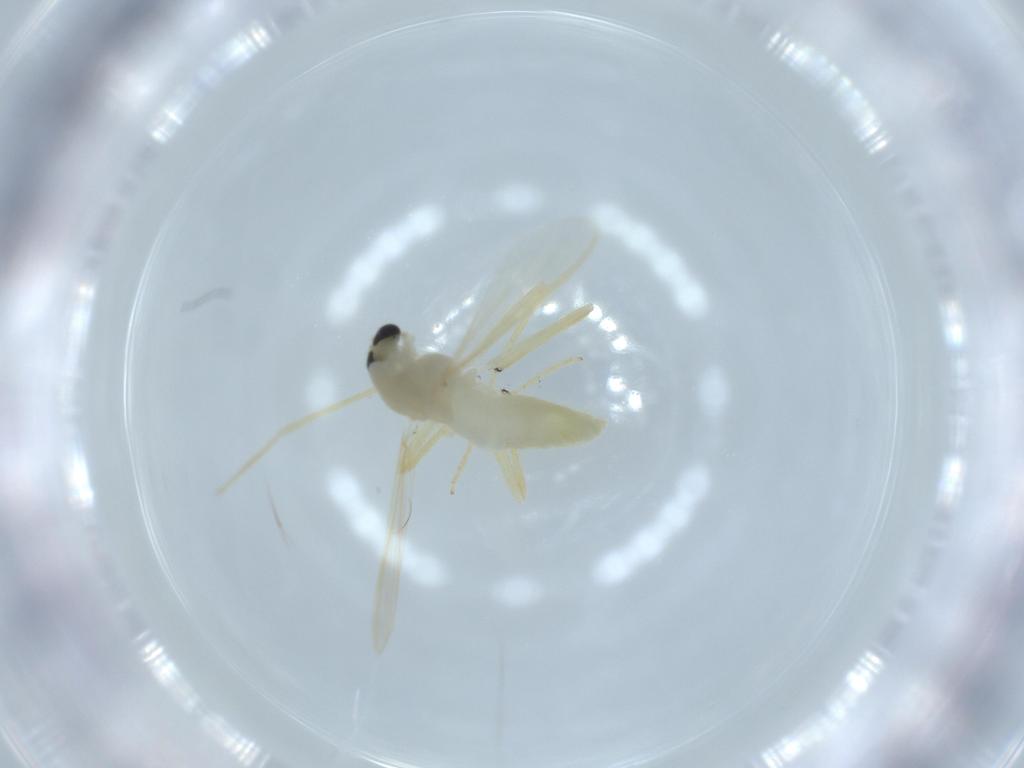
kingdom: Animalia
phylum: Arthropoda
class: Insecta
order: Diptera
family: Chironomidae
